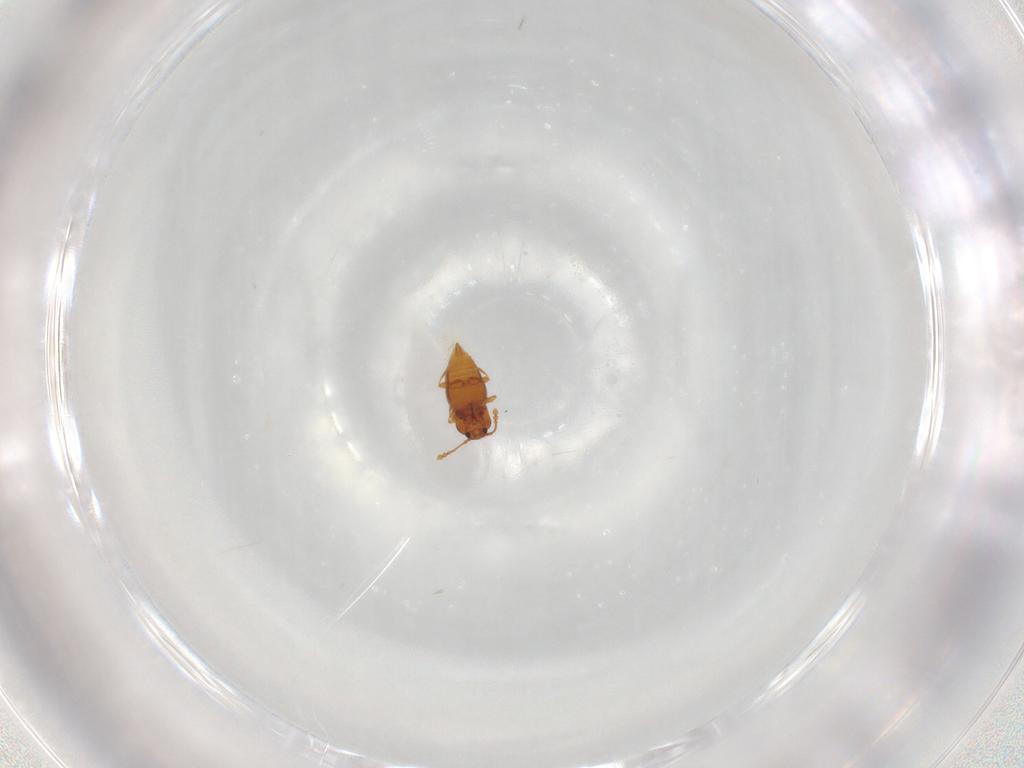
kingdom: Animalia
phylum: Arthropoda
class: Insecta
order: Coleoptera
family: Staphylinidae
